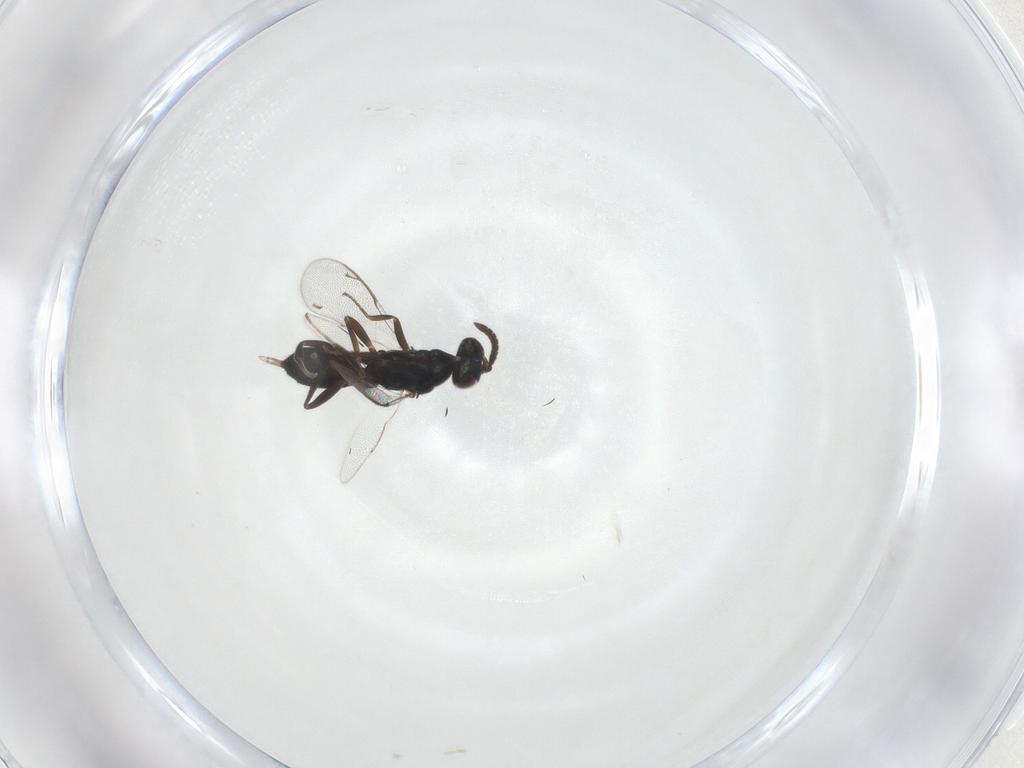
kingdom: Animalia
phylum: Arthropoda
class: Insecta
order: Hymenoptera
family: Cleonyminae
